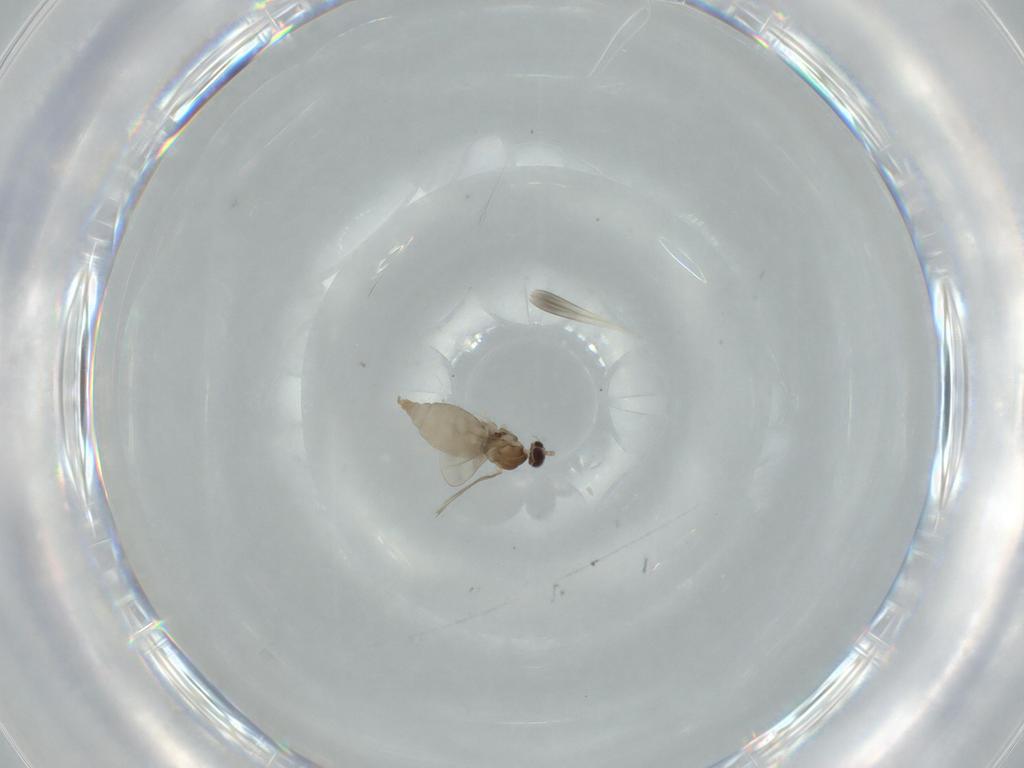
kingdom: Animalia
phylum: Arthropoda
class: Insecta
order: Diptera
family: Cecidomyiidae
